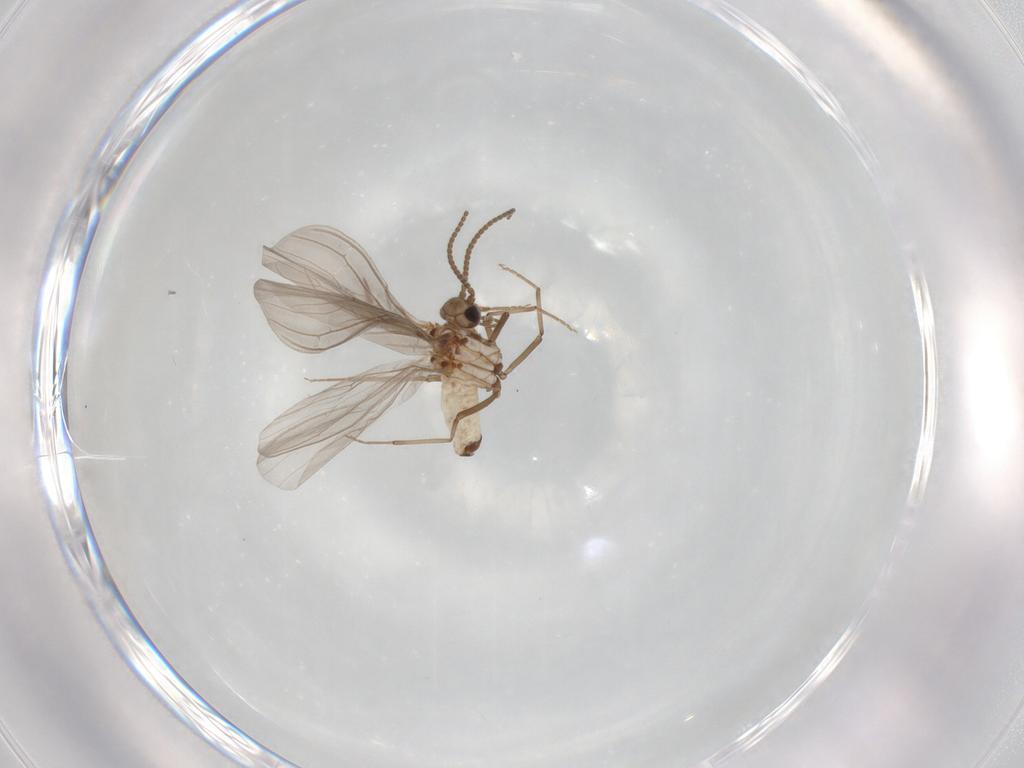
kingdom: Animalia
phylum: Arthropoda
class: Insecta
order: Neuroptera
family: Coniopterygidae
